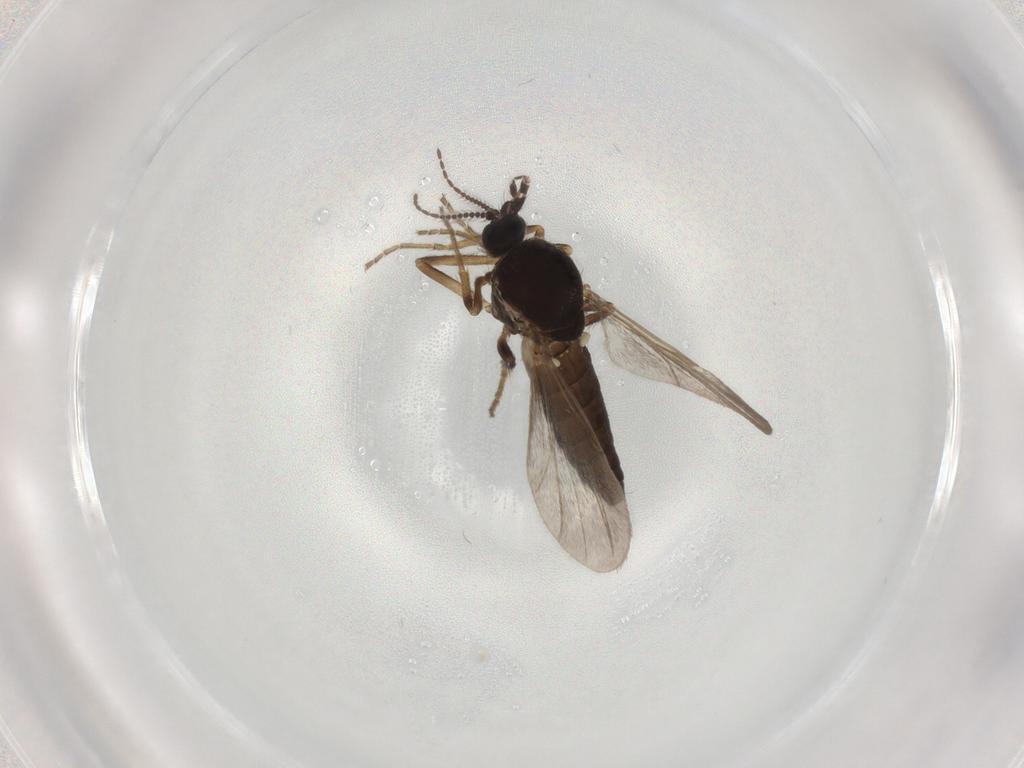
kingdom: Animalia
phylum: Arthropoda
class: Insecta
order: Diptera
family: Ceratopogonidae
